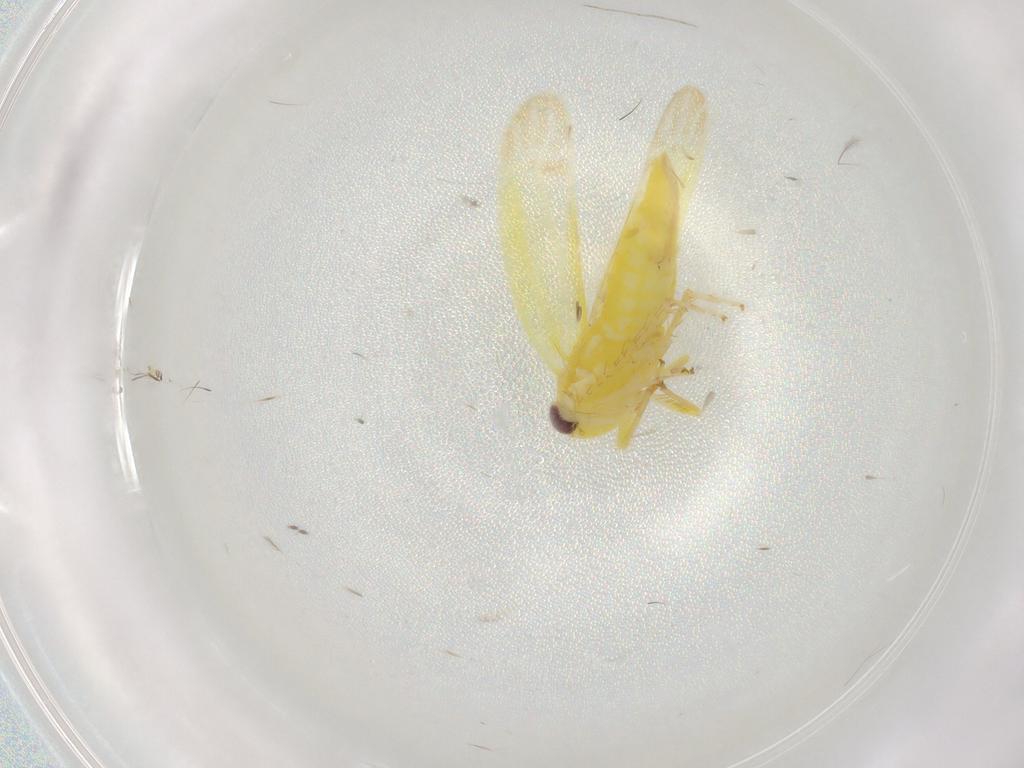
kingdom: Animalia
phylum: Arthropoda
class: Insecta
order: Hemiptera
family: Cicadellidae
